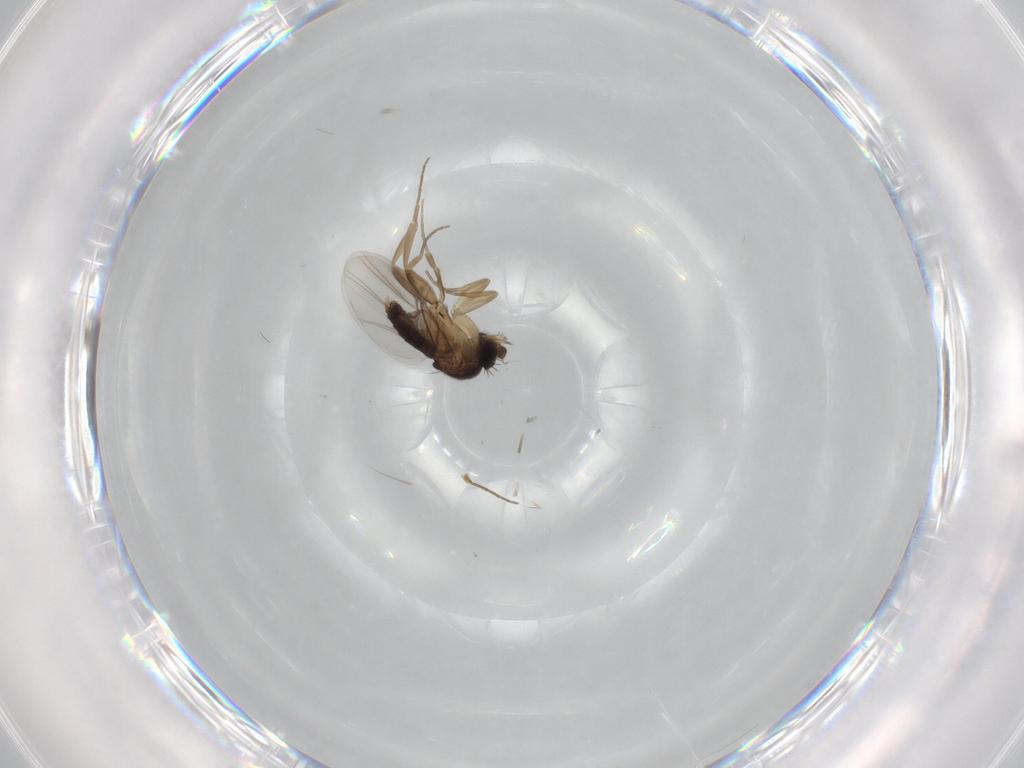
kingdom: Animalia
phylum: Arthropoda
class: Insecta
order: Diptera
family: Phoridae
